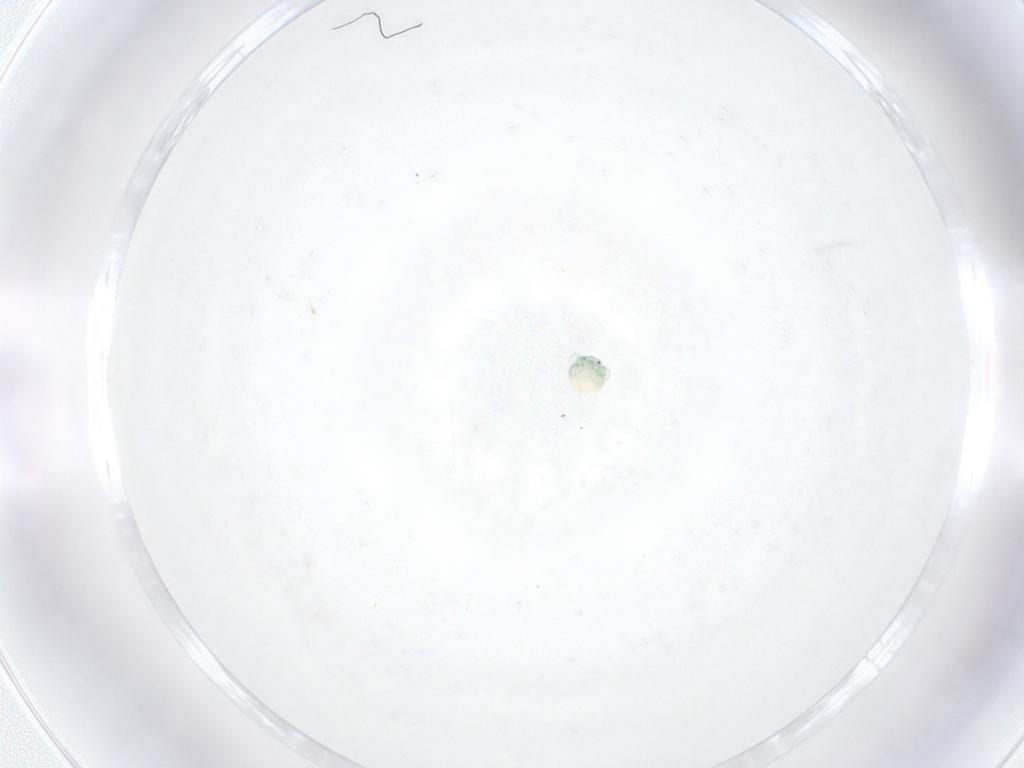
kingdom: Animalia
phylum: Arthropoda
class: Arachnida
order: Trombidiformes
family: Arrenuridae
